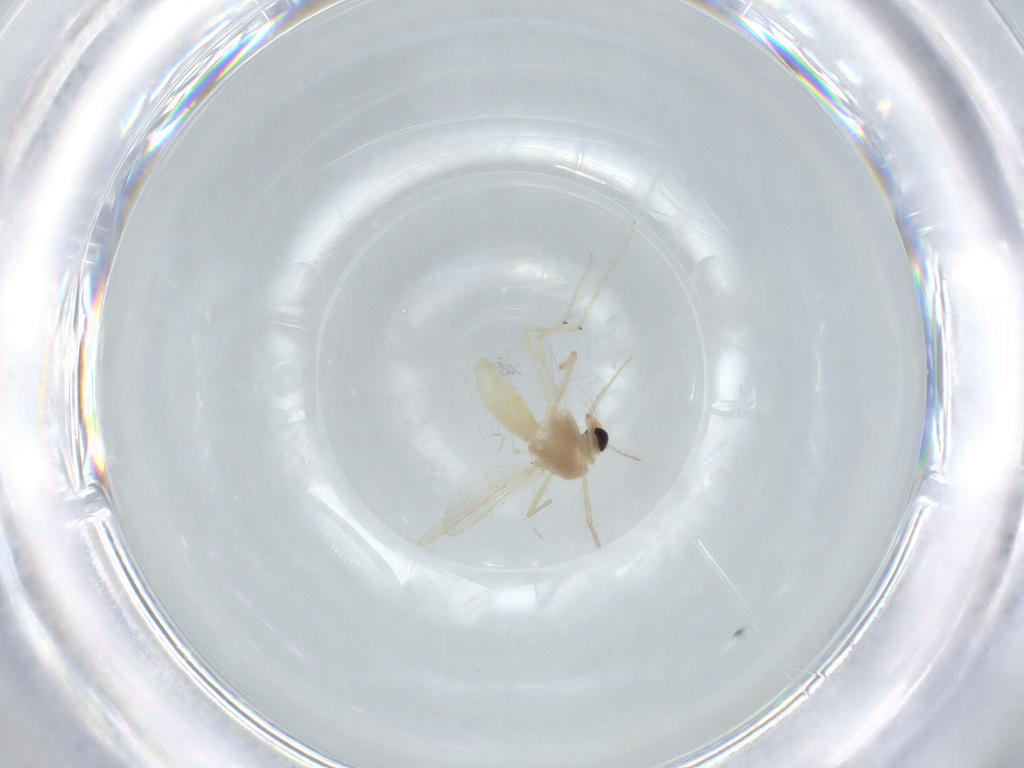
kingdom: Animalia
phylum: Arthropoda
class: Insecta
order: Diptera
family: Chironomidae
